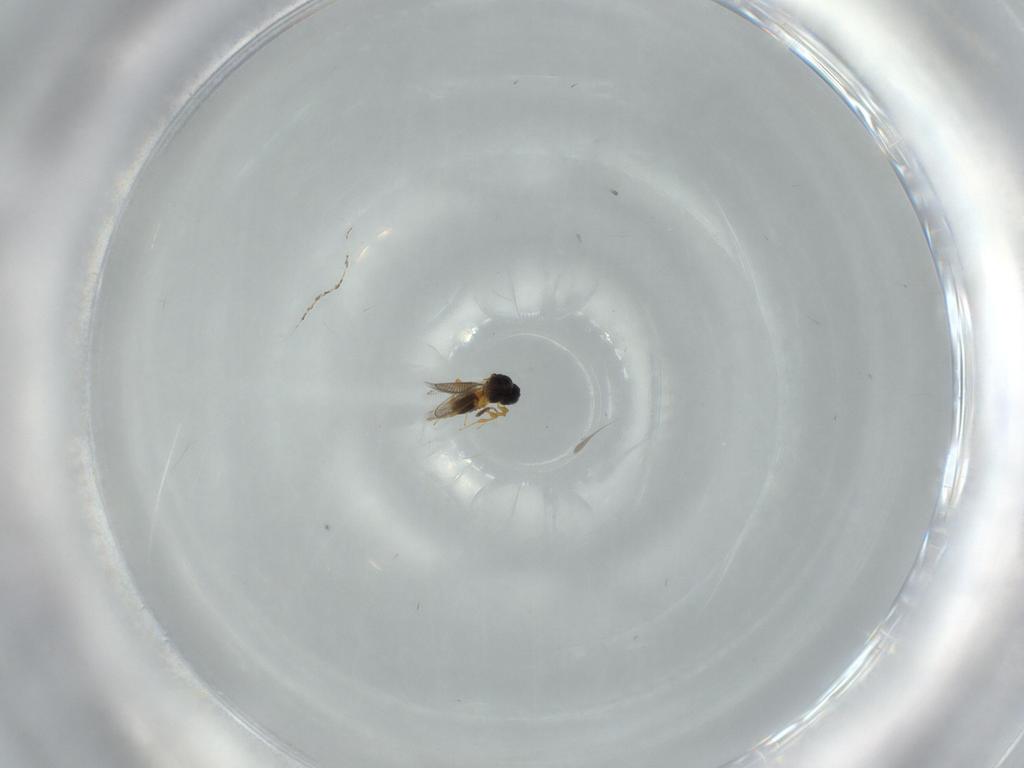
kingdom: Animalia
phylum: Arthropoda
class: Insecta
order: Hymenoptera
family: Platygastridae
